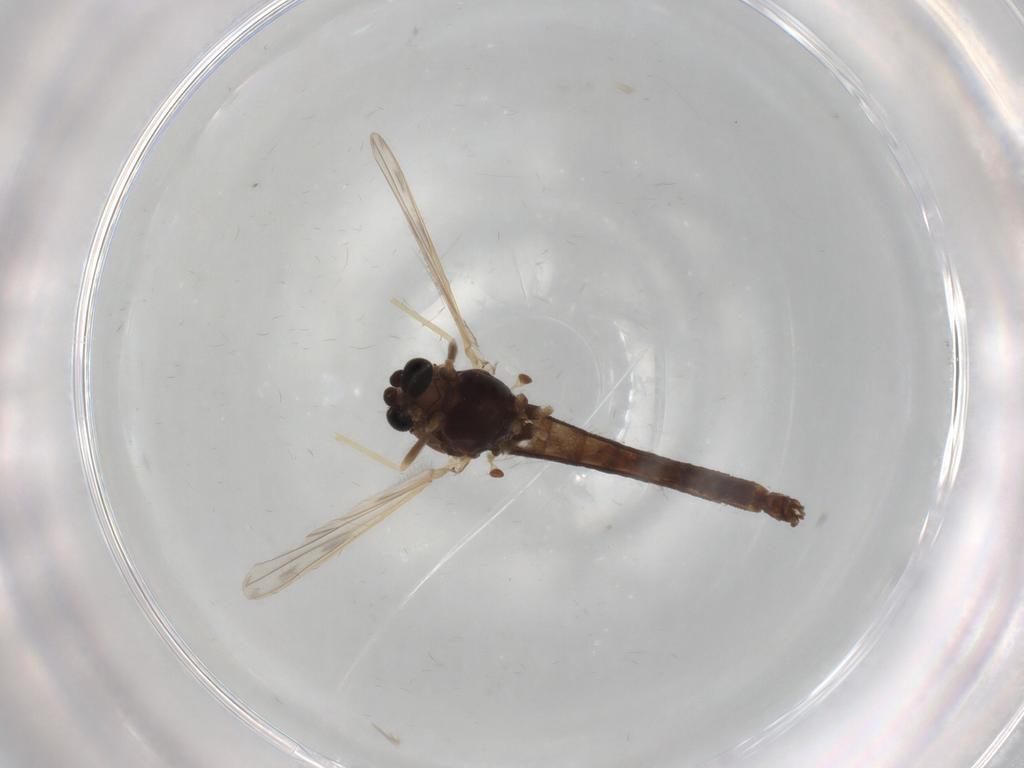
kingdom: Animalia
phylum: Arthropoda
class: Insecta
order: Diptera
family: Chironomidae
